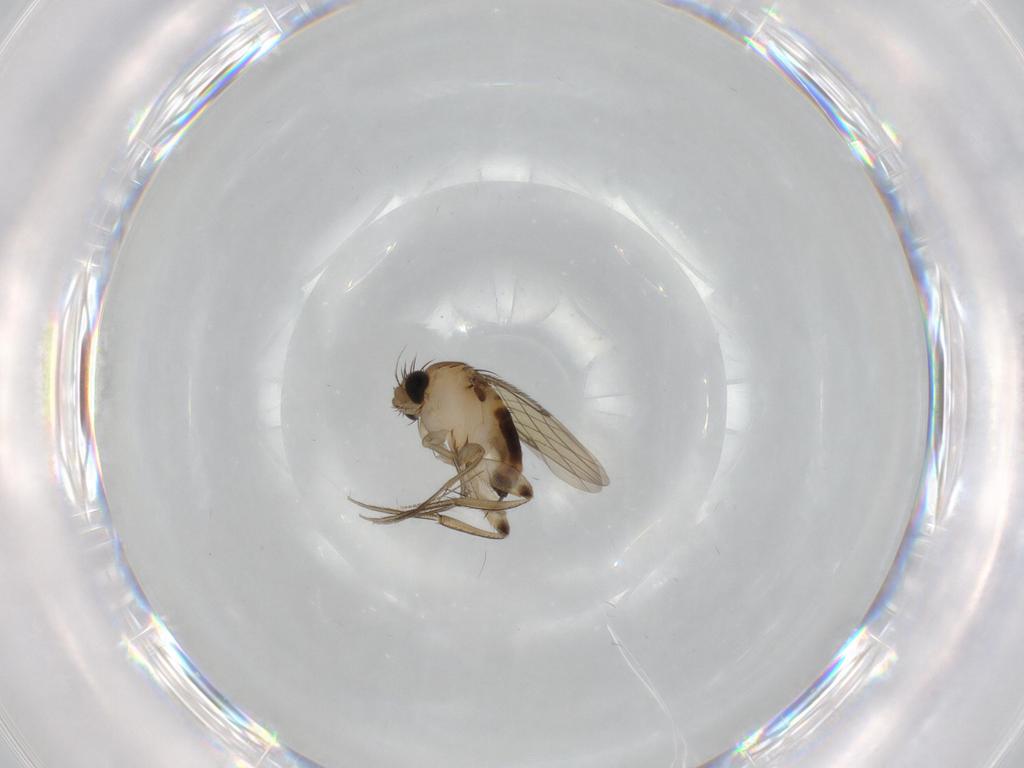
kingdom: Animalia
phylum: Arthropoda
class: Insecta
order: Diptera
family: Phoridae
